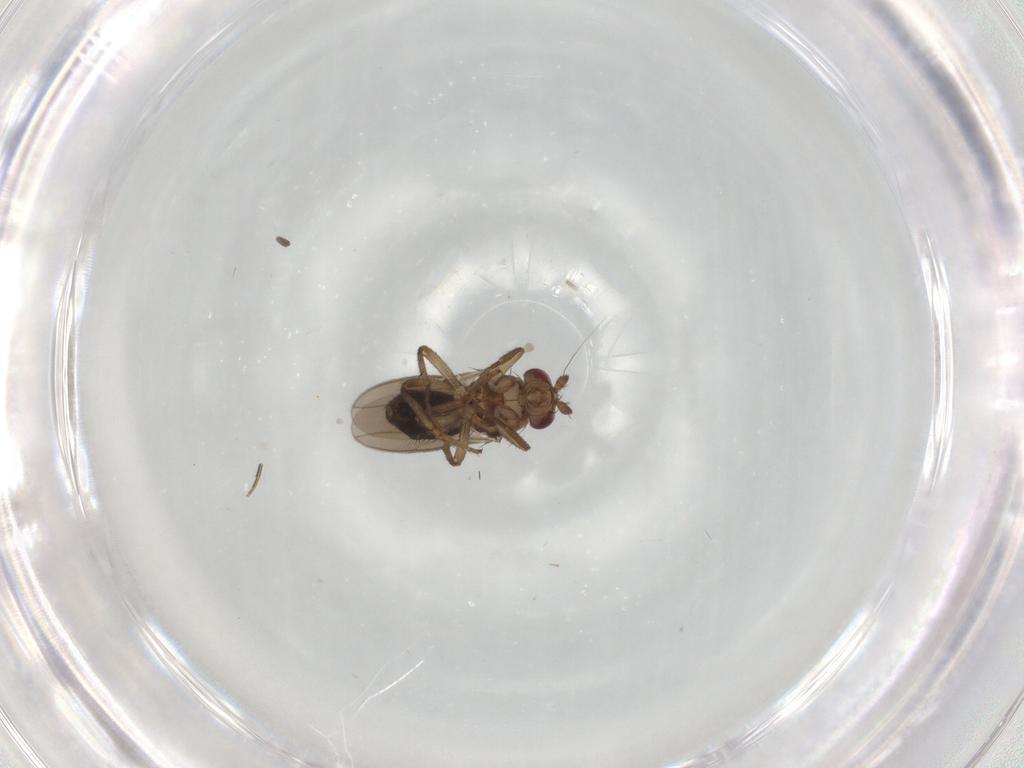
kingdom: Animalia
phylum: Arthropoda
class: Insecta
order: Diptera
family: Sphaeroceridae
